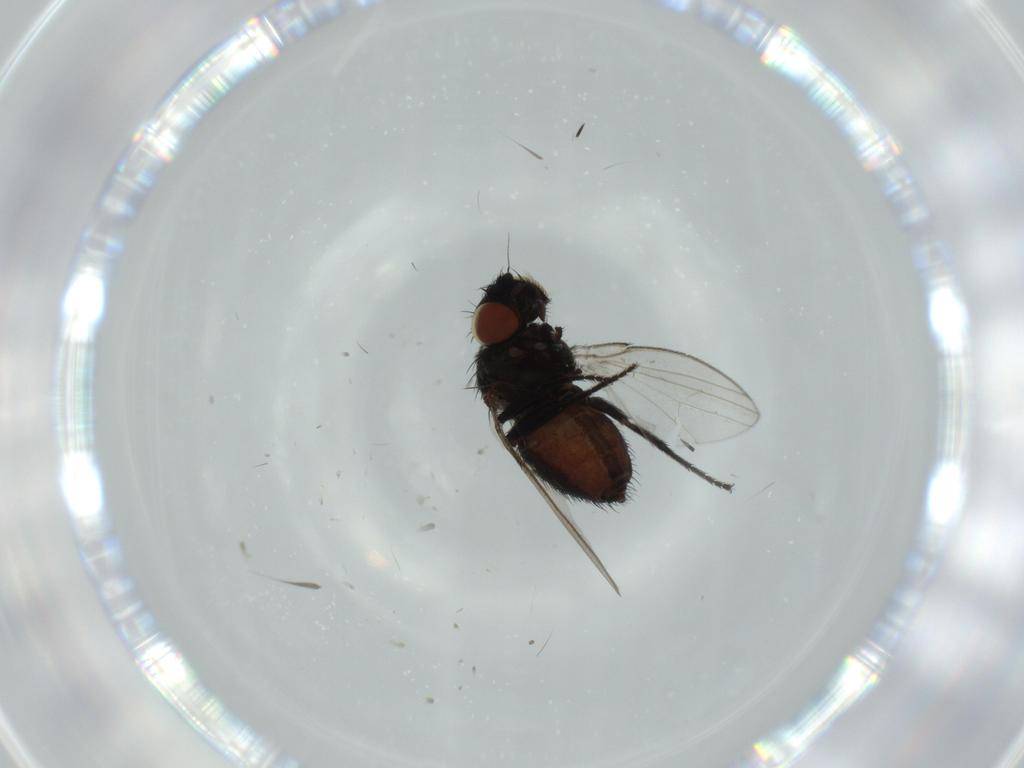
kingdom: Animalia
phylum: Arthropoda
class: Insecta
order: Diptera
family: Milichiidae
